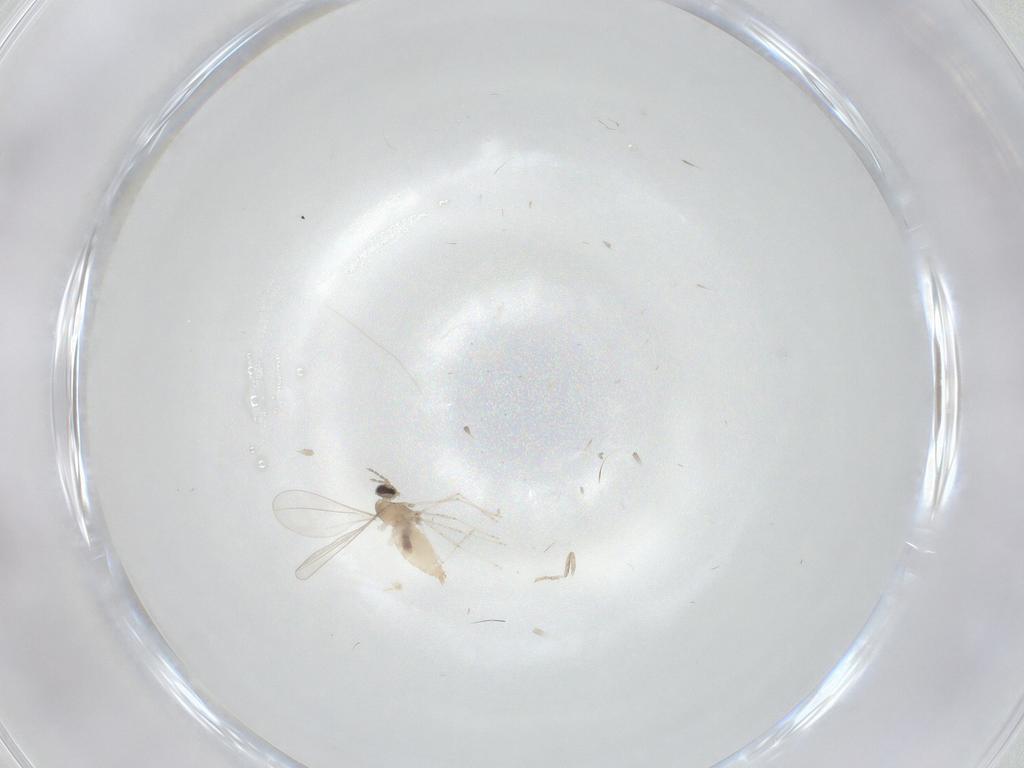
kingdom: Animalia
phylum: Arthropoda
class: Insecta
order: Diptera
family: Cecidomyiidae
